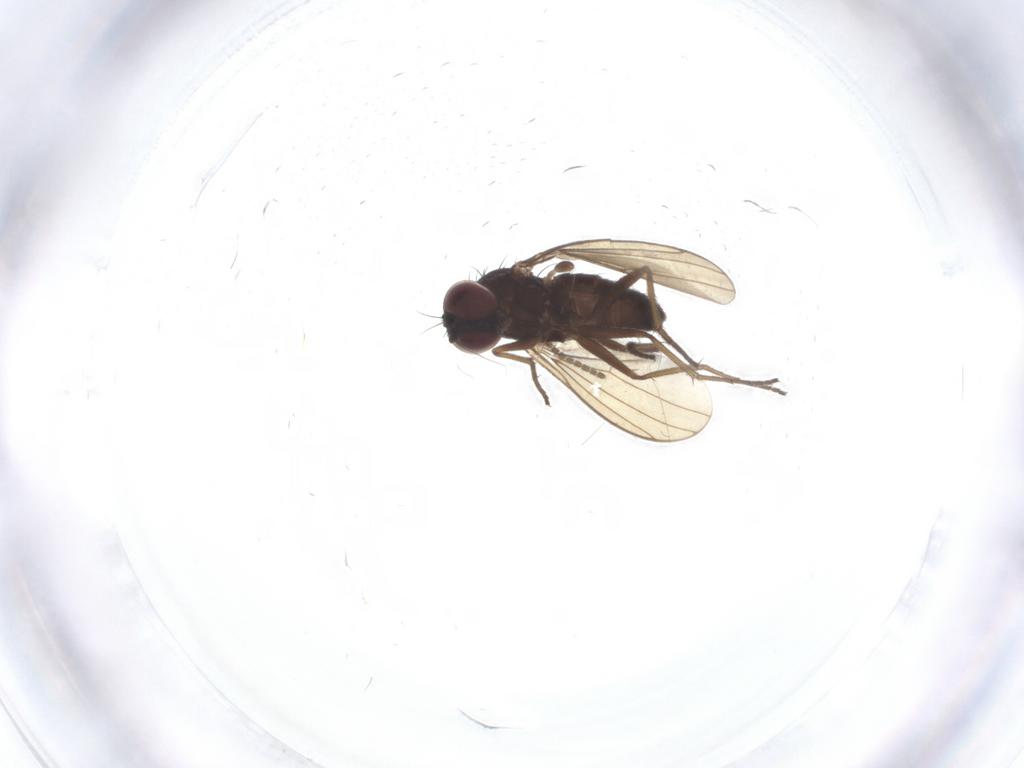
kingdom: Animalia
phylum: Arthropoda
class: Insecta
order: Diptera
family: Dolichopodidae
